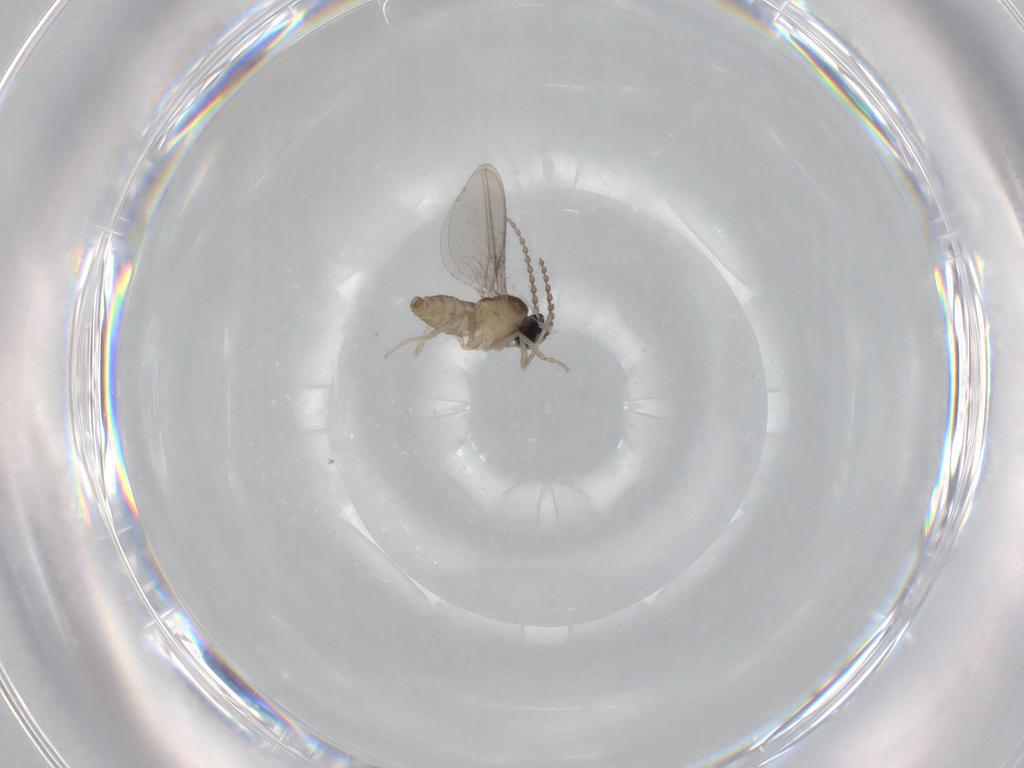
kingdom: Animalia
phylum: Arthropoda
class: Insecta
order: Diptera
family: Cecidomyiidae
